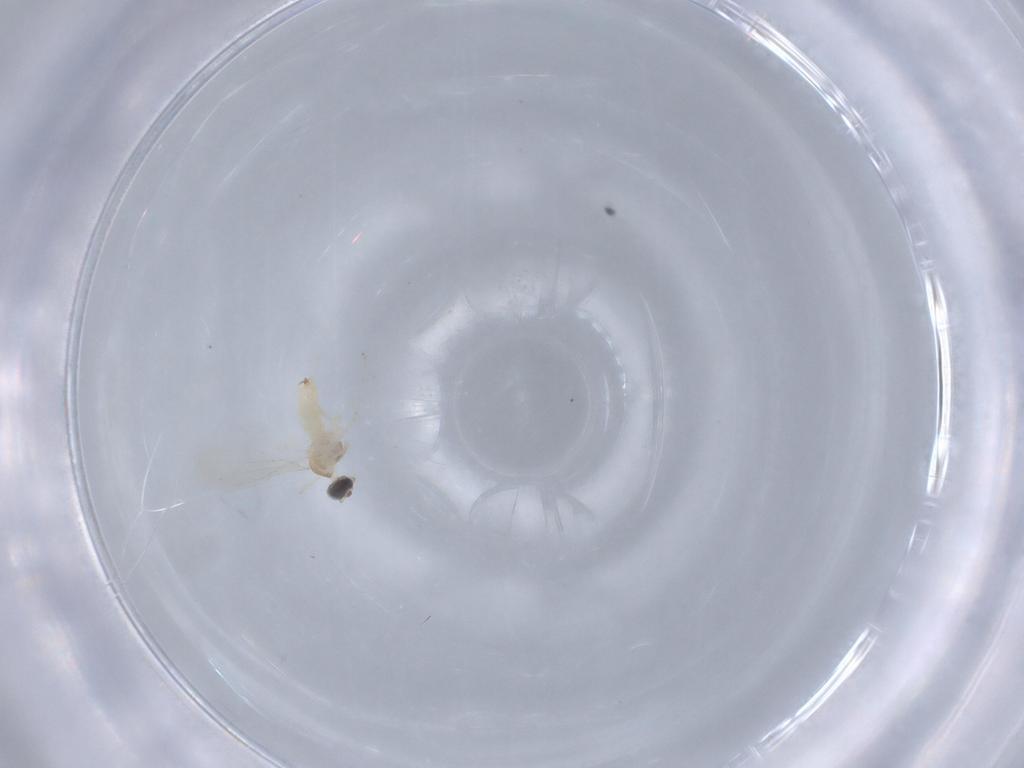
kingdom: Animalia
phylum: Arthropoda
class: Insecta
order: Diptera
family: Cecidomyiidae
